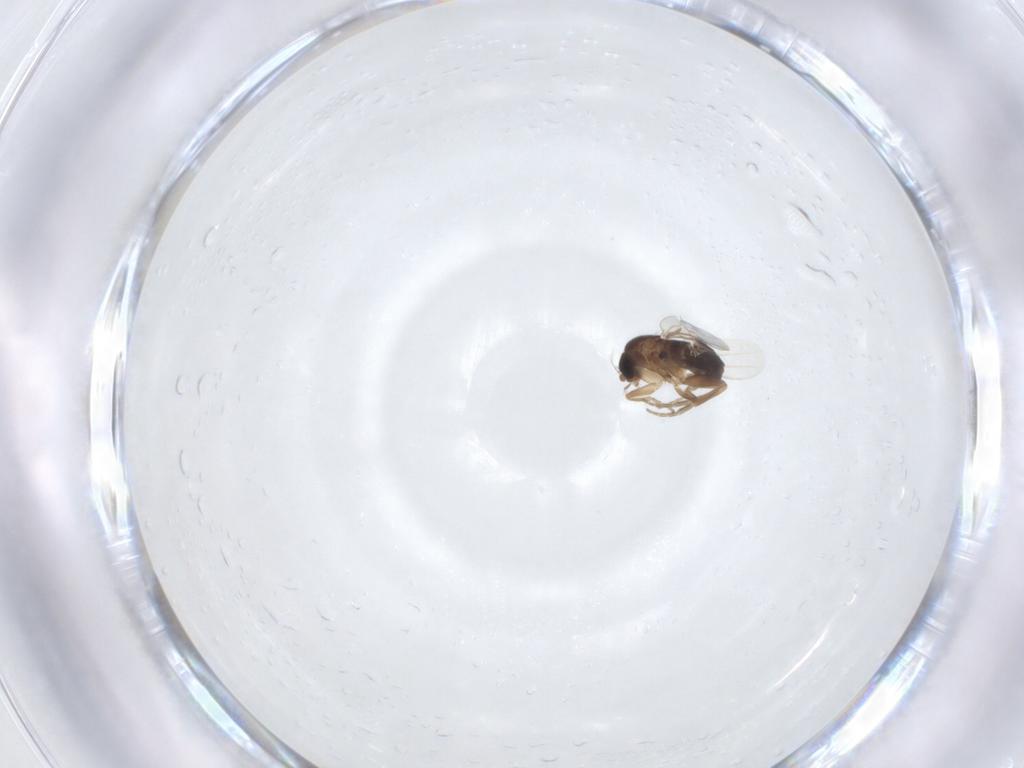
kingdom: Animalia
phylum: Arthropoda
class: Insecta
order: Diptera
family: Phoridae
